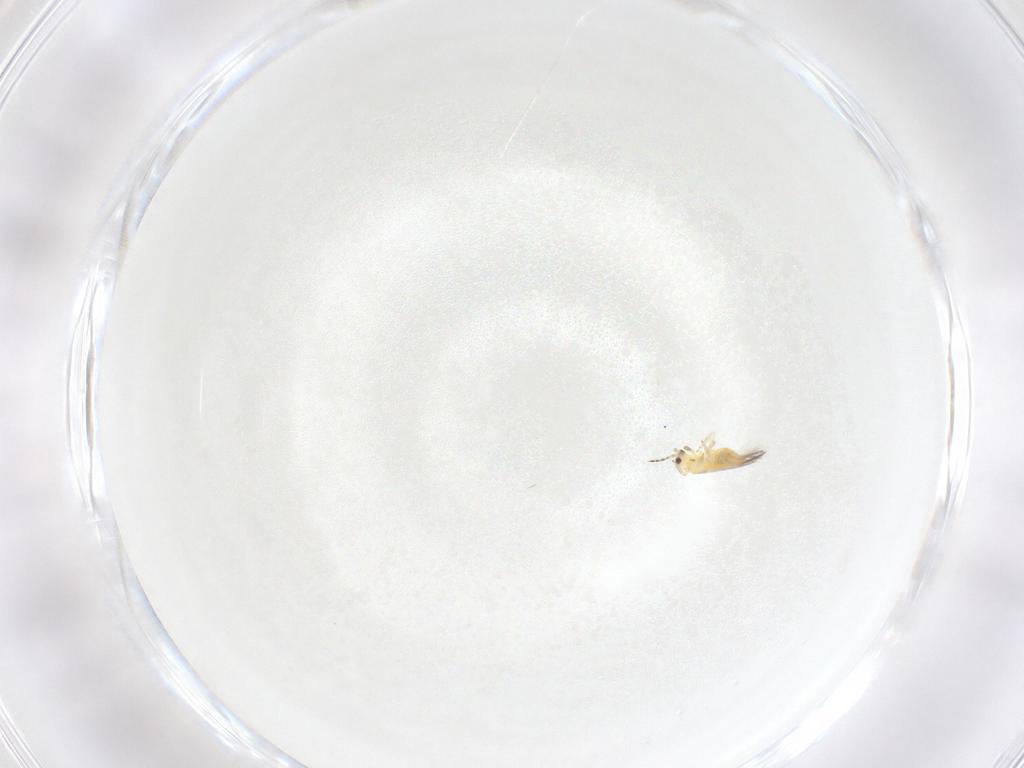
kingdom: Animalia
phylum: Arthropoda
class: Insecta
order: Thysanoptera
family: Thripidae
